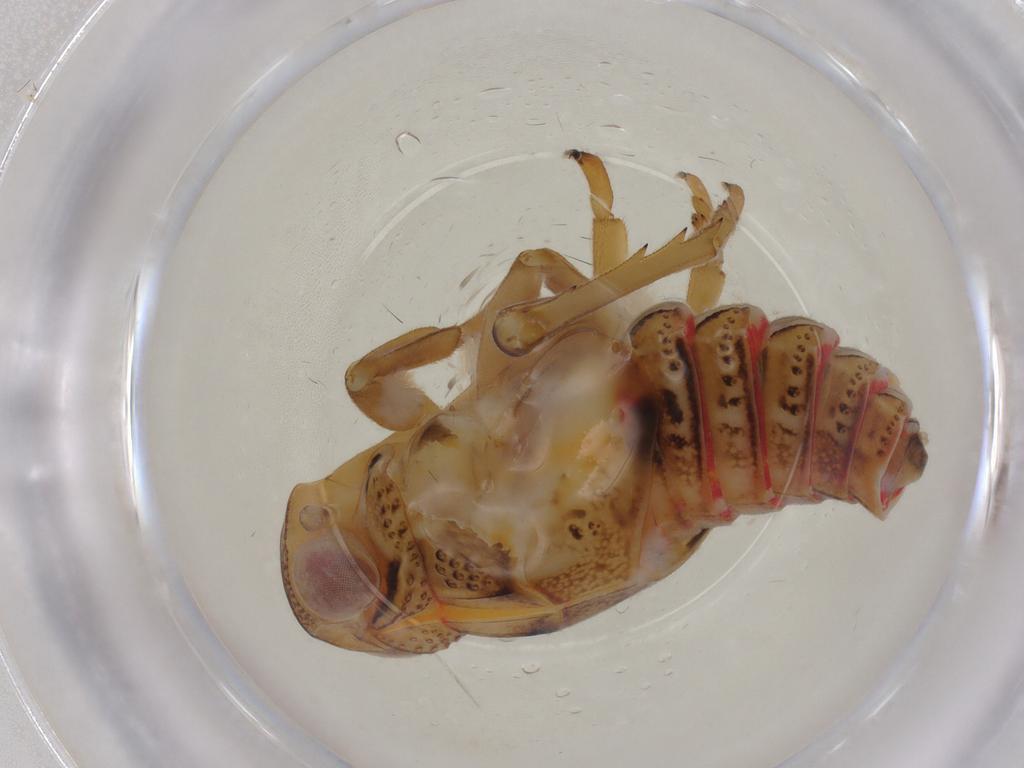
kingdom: Animalia
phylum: Arthropoda
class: Insecta
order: Hemiptera
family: Issidae
